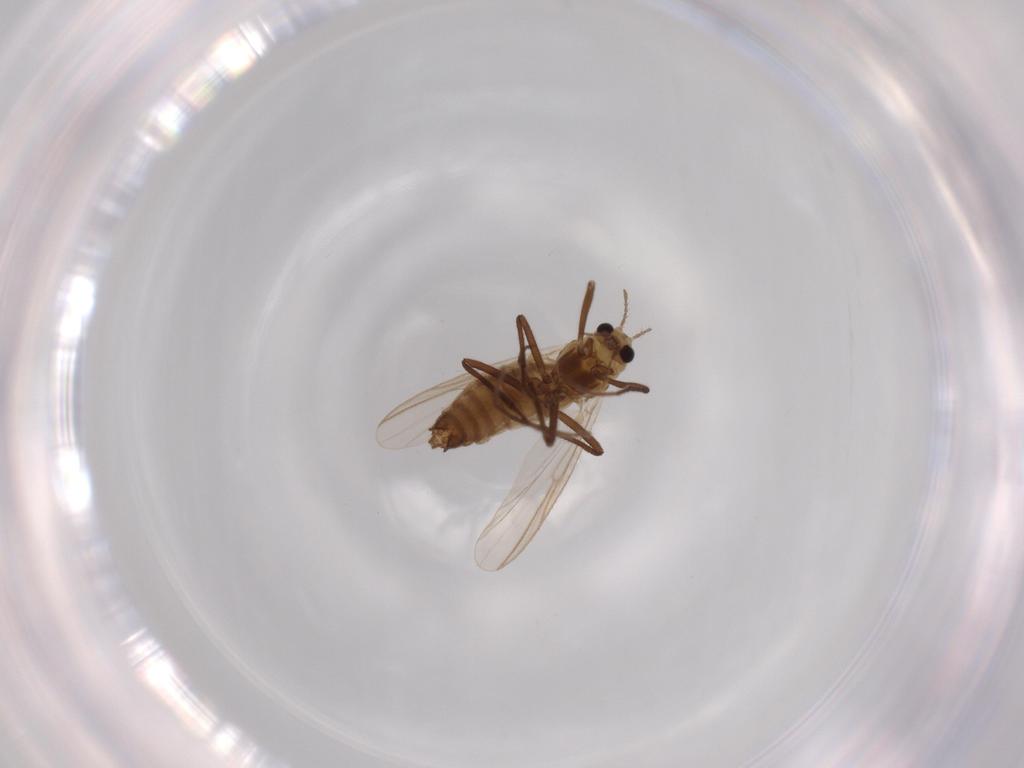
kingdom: Animalia
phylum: Arthropoda
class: Insecta
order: Diptera
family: Chironomidae
